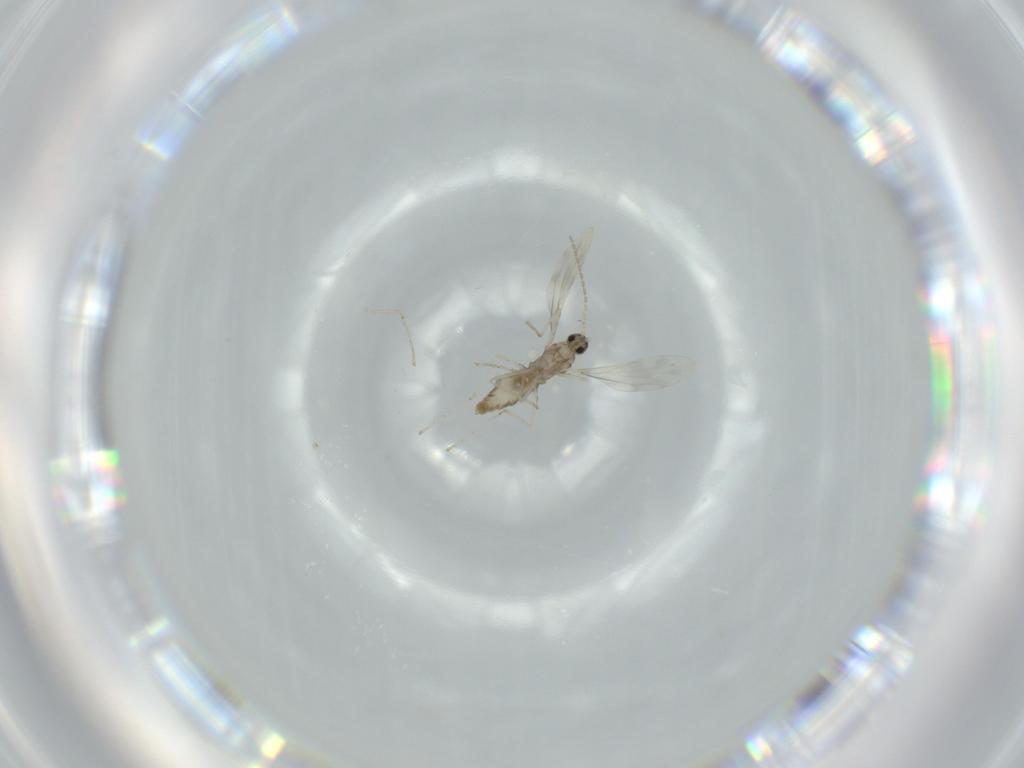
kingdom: Animalia
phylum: Arthropoda
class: Insecta
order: Diptera
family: Cecidomyiidae
